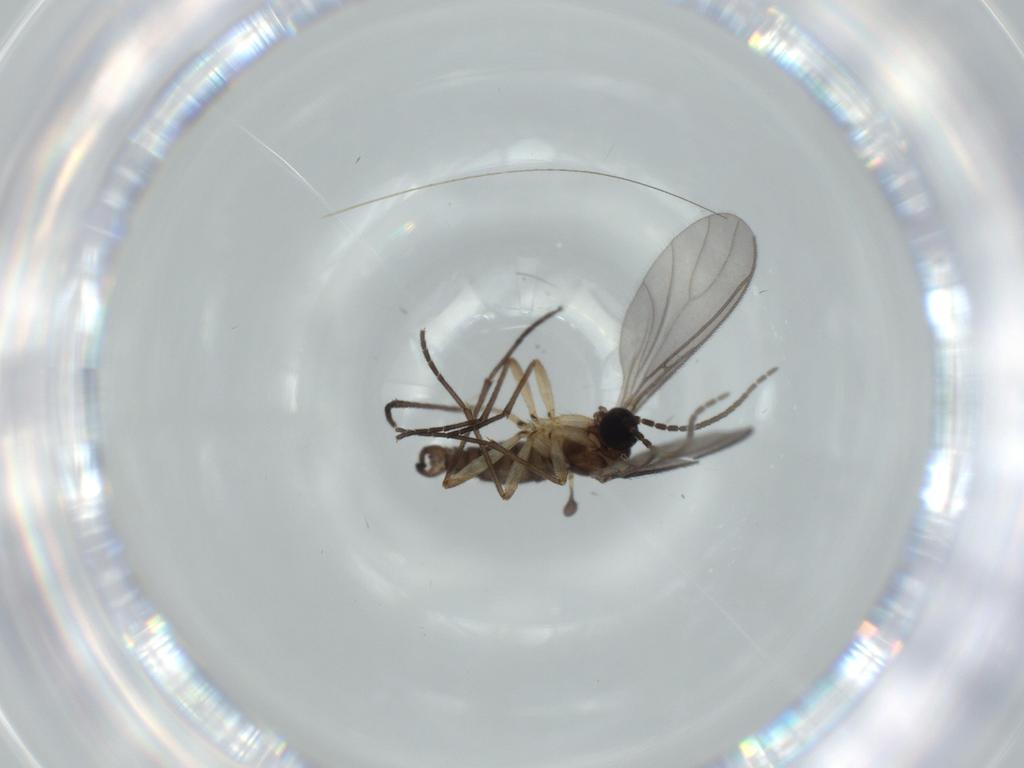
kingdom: Animalia
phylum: Arthropoda
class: Insecta
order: Diptera
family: Sciaridae
